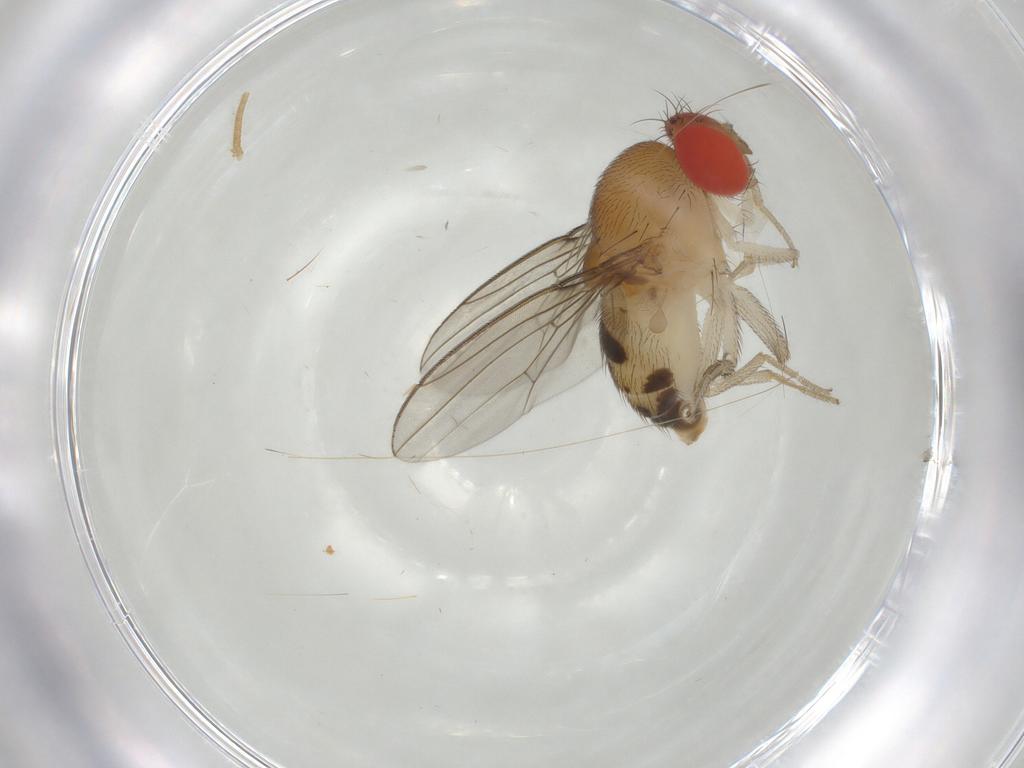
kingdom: Animalia
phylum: Arthropoda
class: Insecta
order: Diptera
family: Drosophilidae
